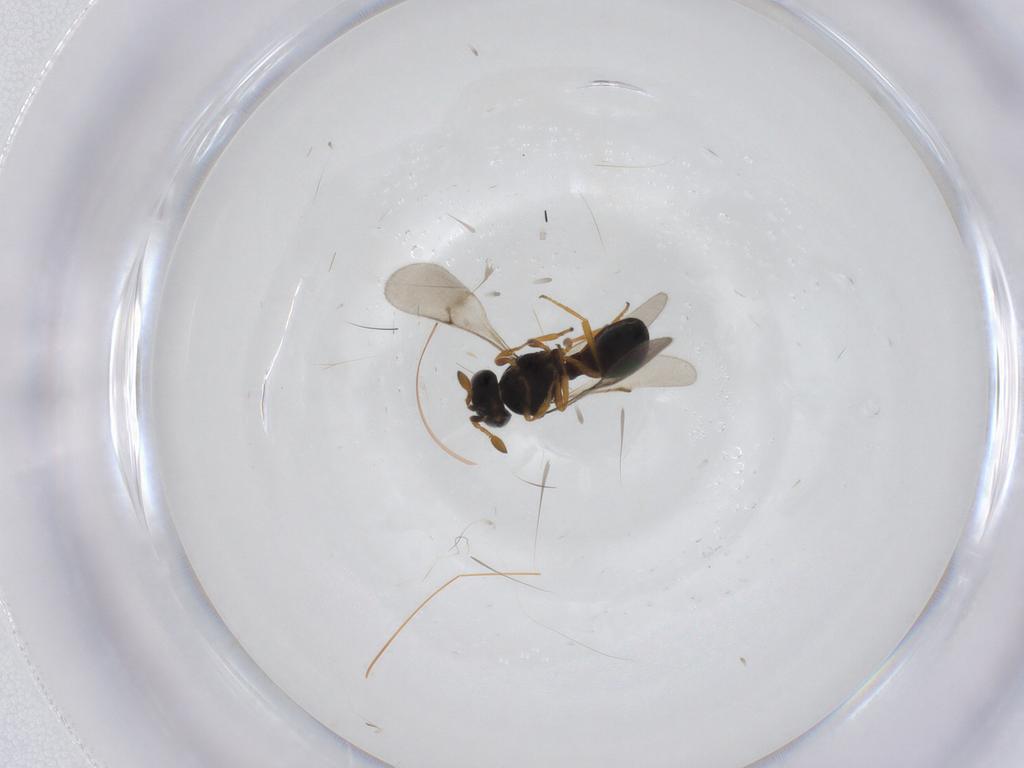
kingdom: Animalia
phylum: Arthropoda
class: Insecta
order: Hymenoptera
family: Scelionidae
